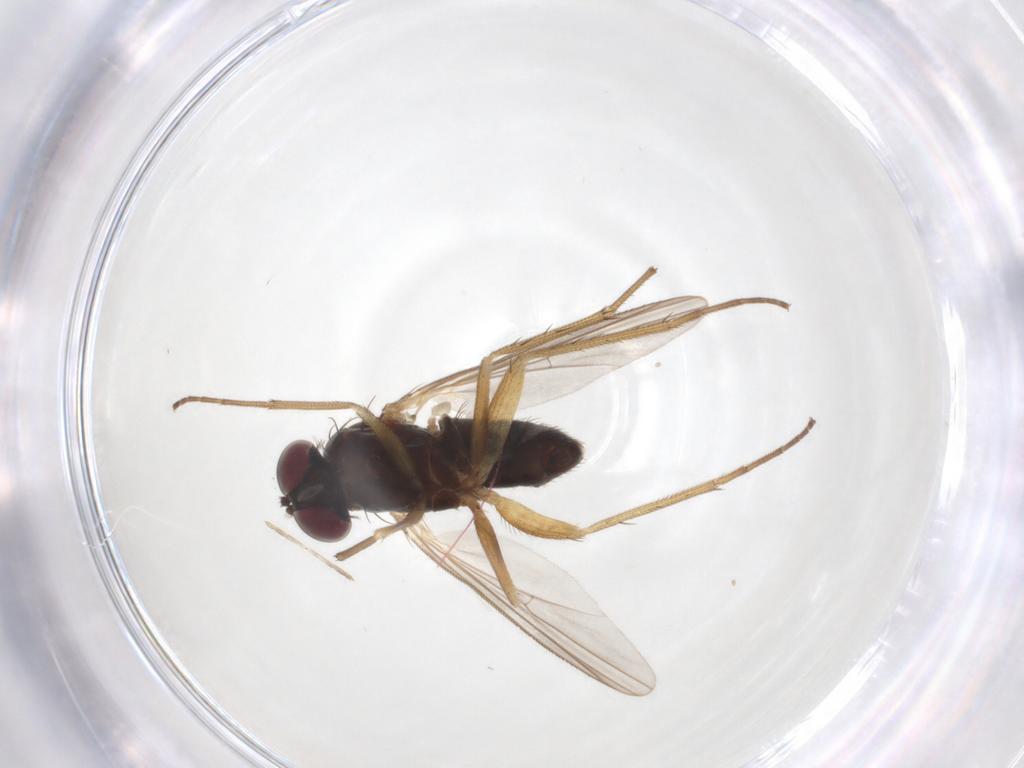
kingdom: Animalia
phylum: Arthropoda
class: Insecta
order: Diptera
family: Dolichopodidae
